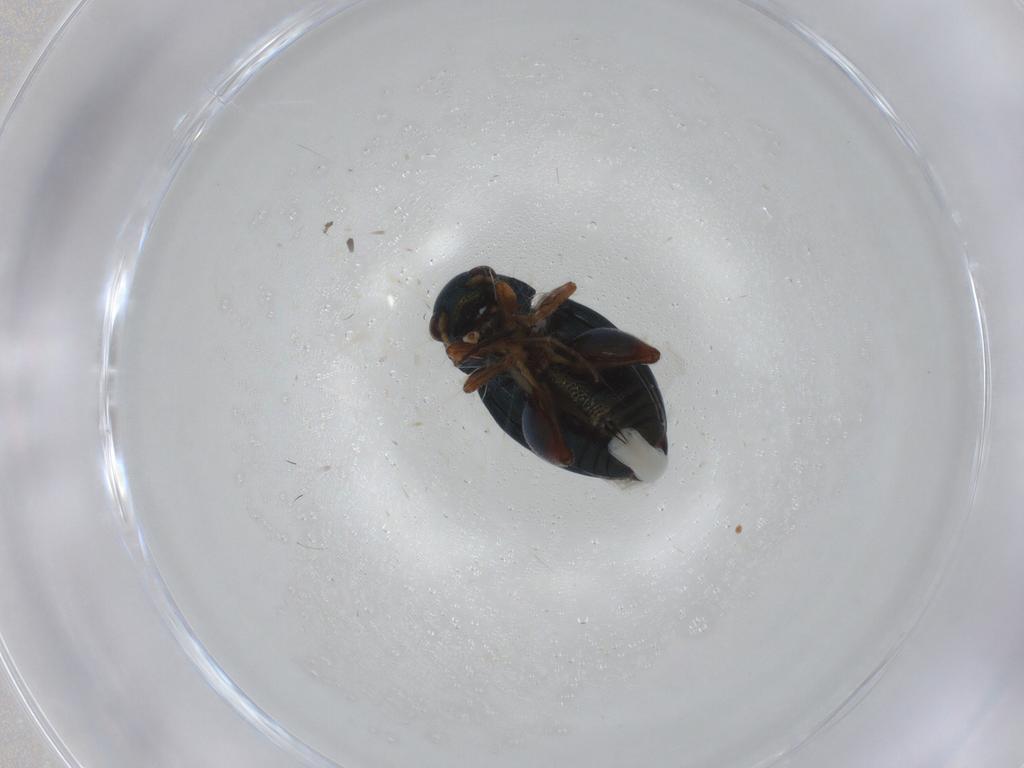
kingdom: Animalia
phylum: Arthropoda
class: Insecta
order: Coleoptera
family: Chrysomelidae
